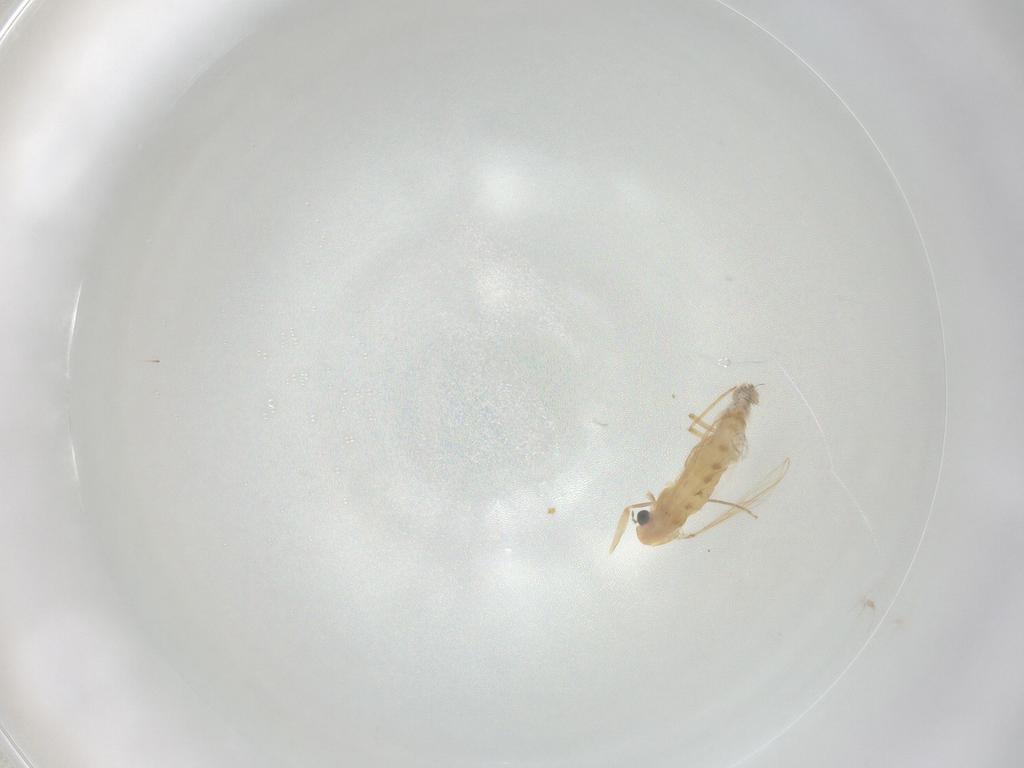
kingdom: Animalia
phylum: Arthropoda
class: Insecta
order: Diptera
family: Chironomidae
